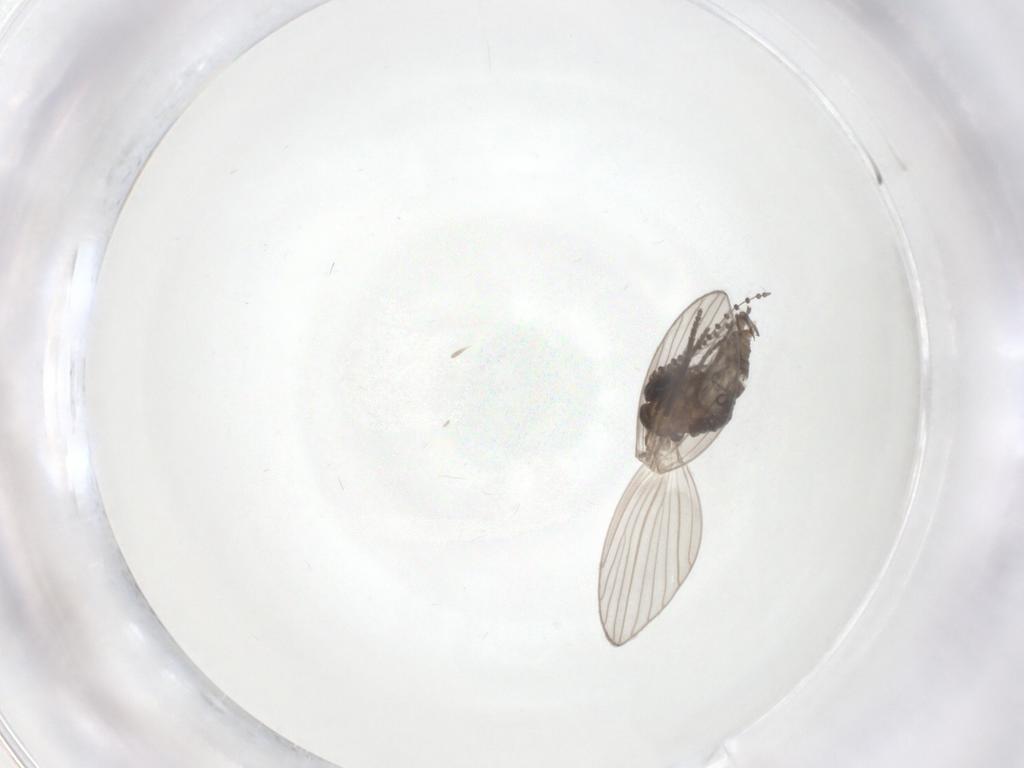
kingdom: Animalia
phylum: Arthropoda
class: Insecta
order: Diptera
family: Psychodidae
